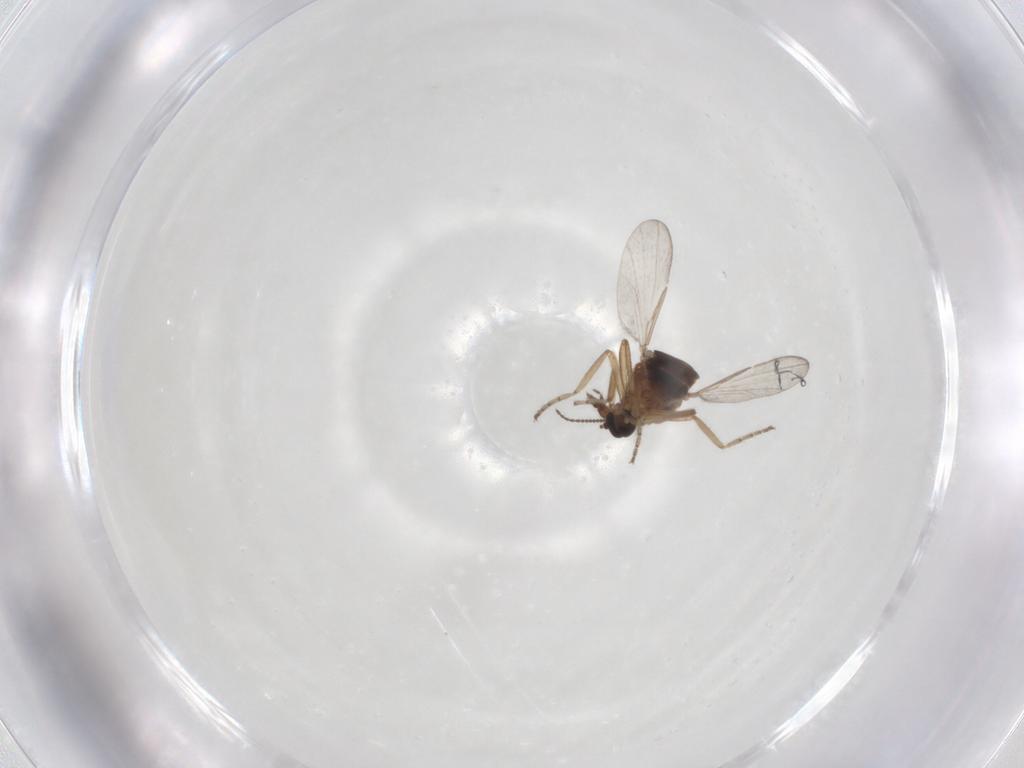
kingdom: Animalia
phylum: Arthropoda
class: Insecta
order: Diptera
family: Ceratopogonidae
